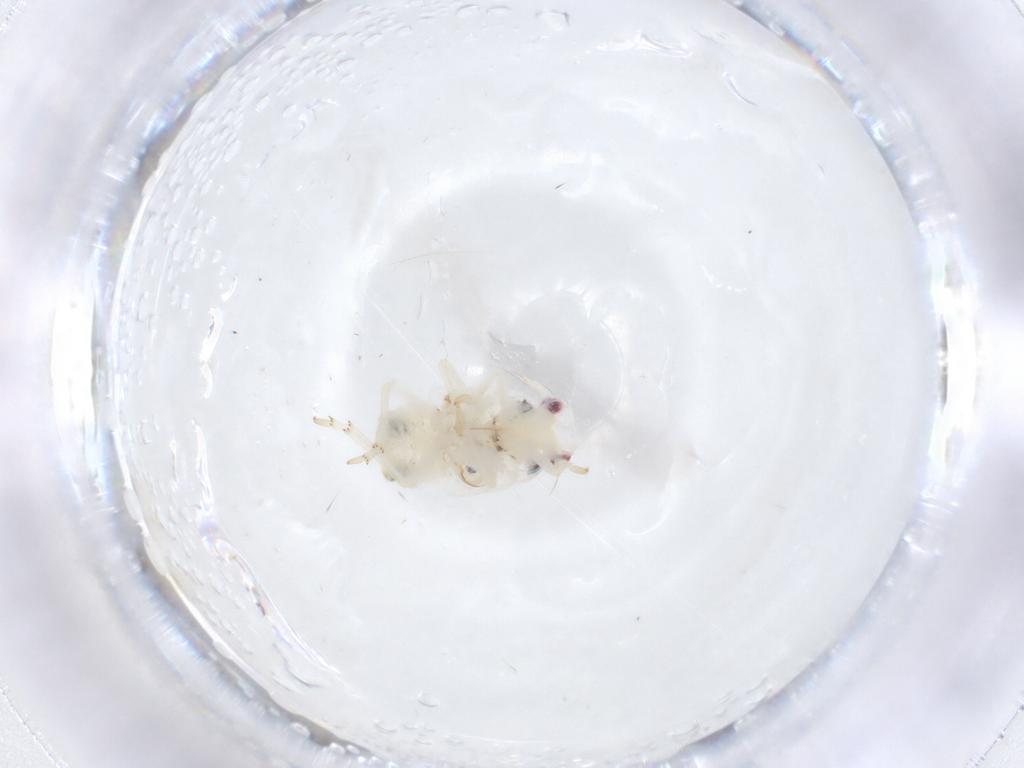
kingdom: Animalia
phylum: Arthropoda
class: Insecta
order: Hemiptera
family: Flatidae
